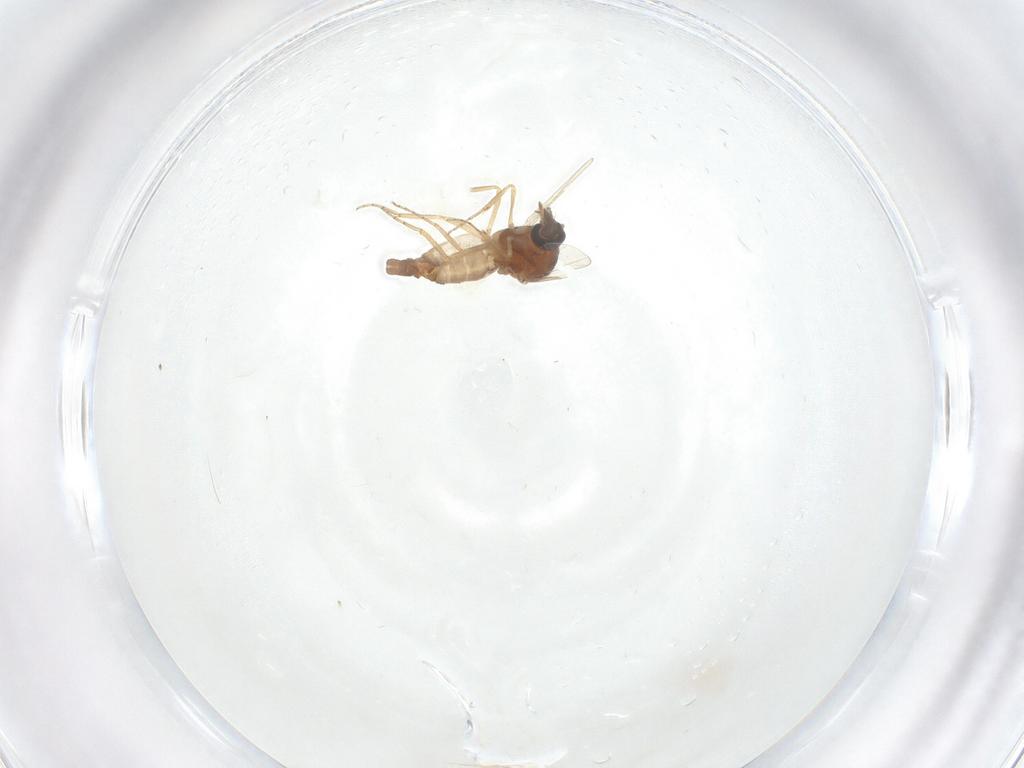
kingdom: Animalia
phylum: Arthropoda
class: Insecta
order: Diptera
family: Ceratopogonidae
